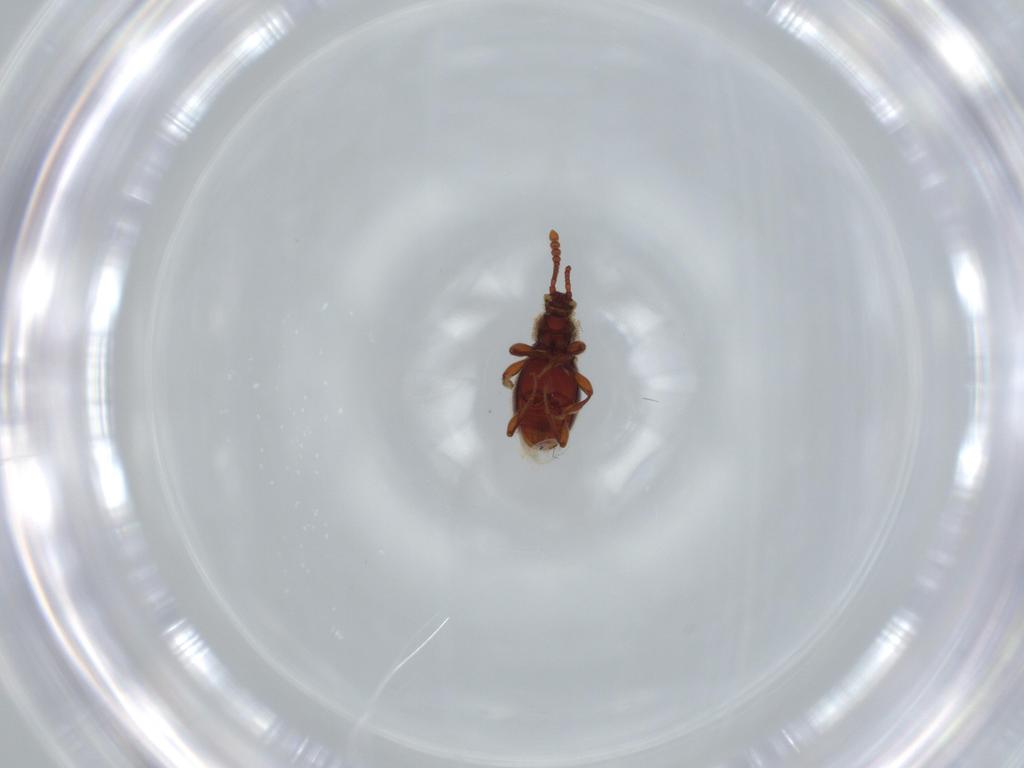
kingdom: Animalia
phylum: Arthropoda
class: Insecta
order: Coleoptera
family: Staphylinidae
